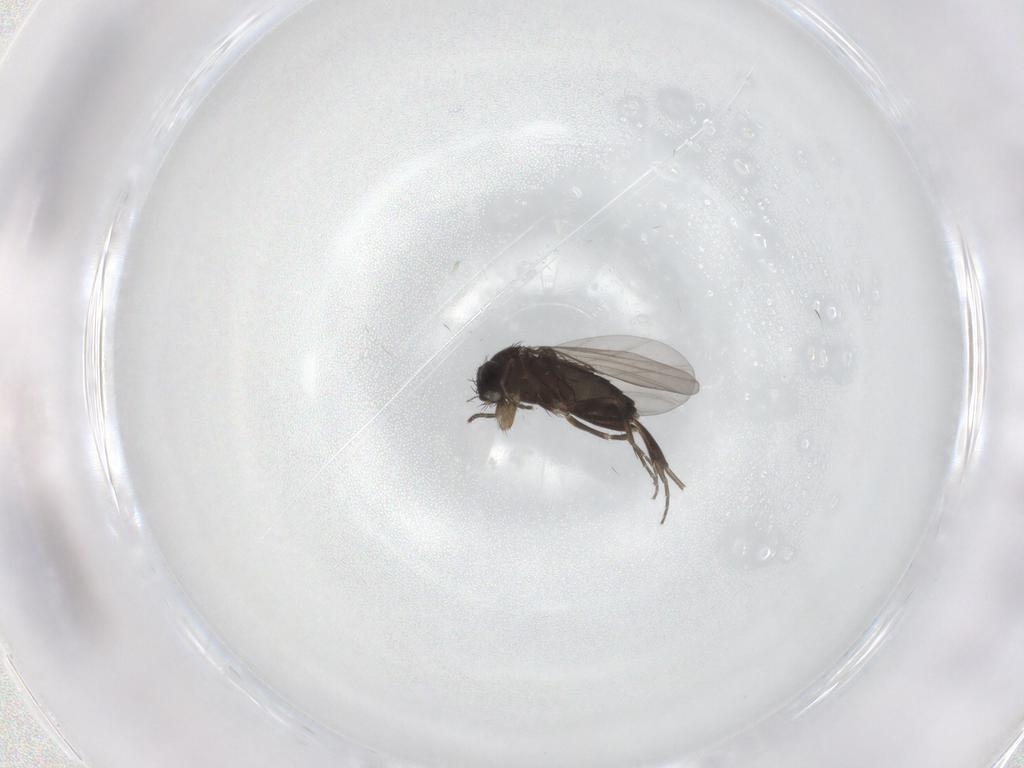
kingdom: Animalia
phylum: Arthropoda
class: Insecta
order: Diptera
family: Phoridae
